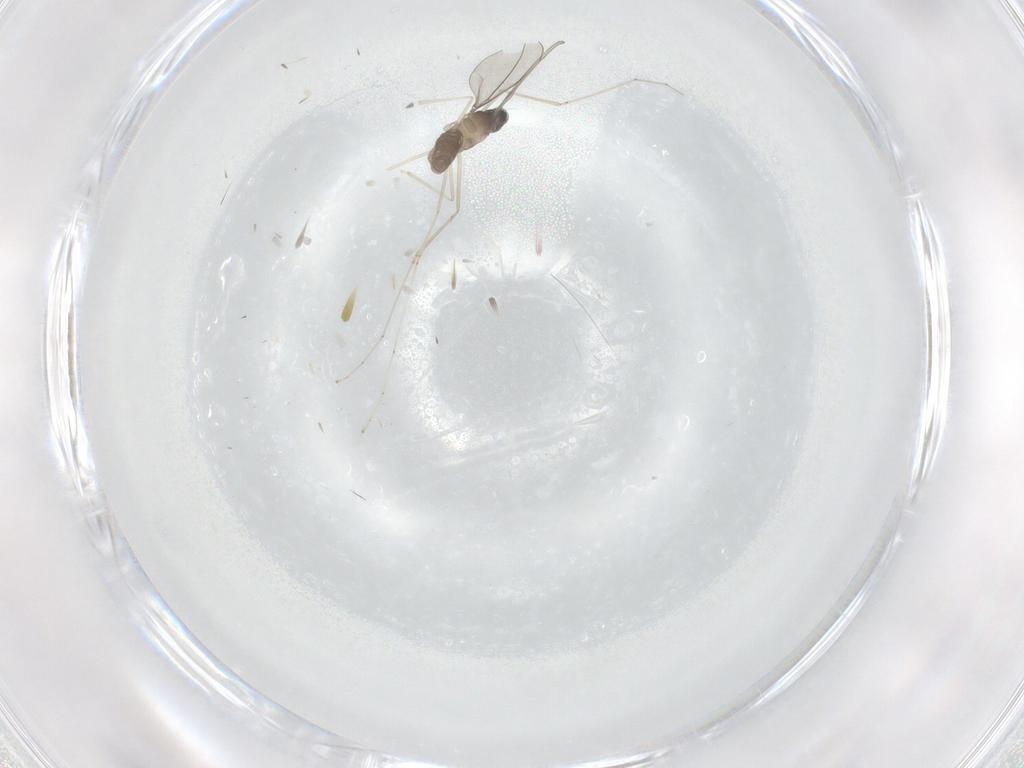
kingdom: Animalia
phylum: Arthropoda
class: Insecta
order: Diptera
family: Cecidomyiidae
